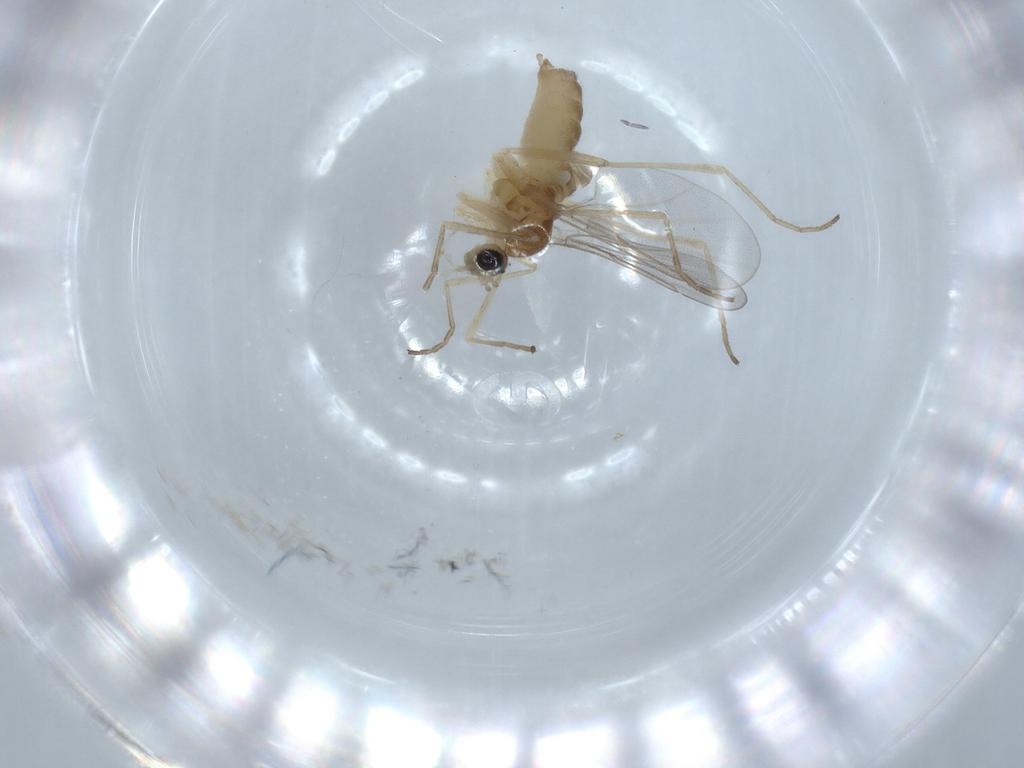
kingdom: Animalia
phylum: Arthropoda
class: Insecta
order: Diptera
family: Cecidomyiidae
